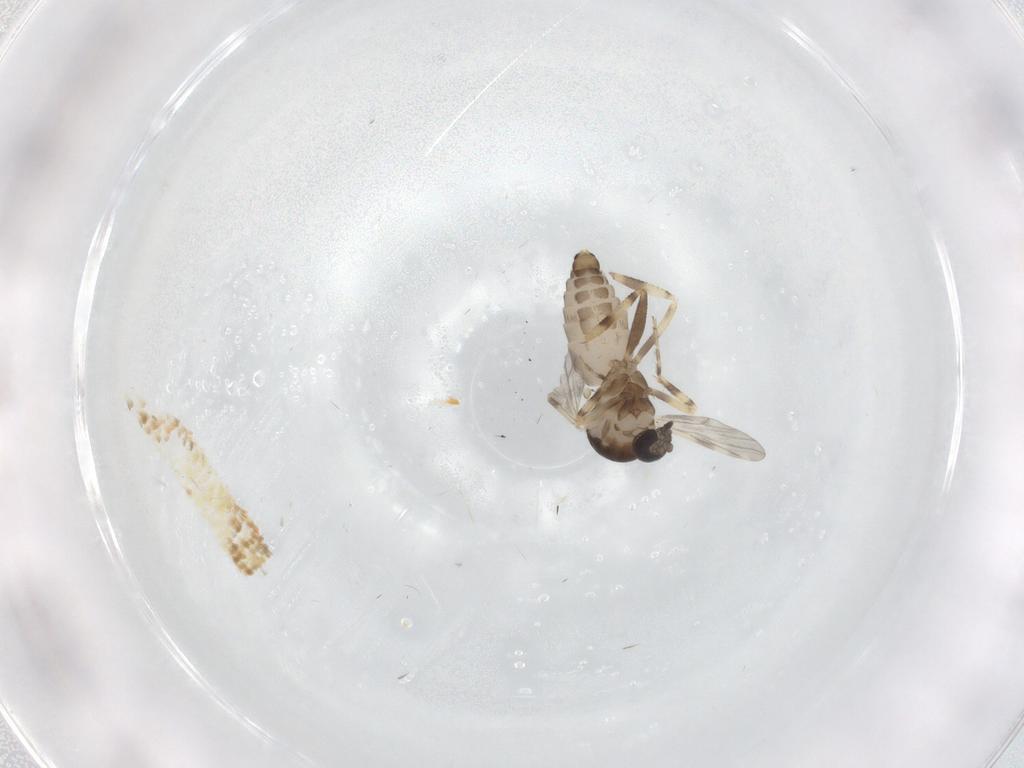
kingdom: Animalia
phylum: Arthropoda
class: Insecta
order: Diptera
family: Ceratopogonidae
